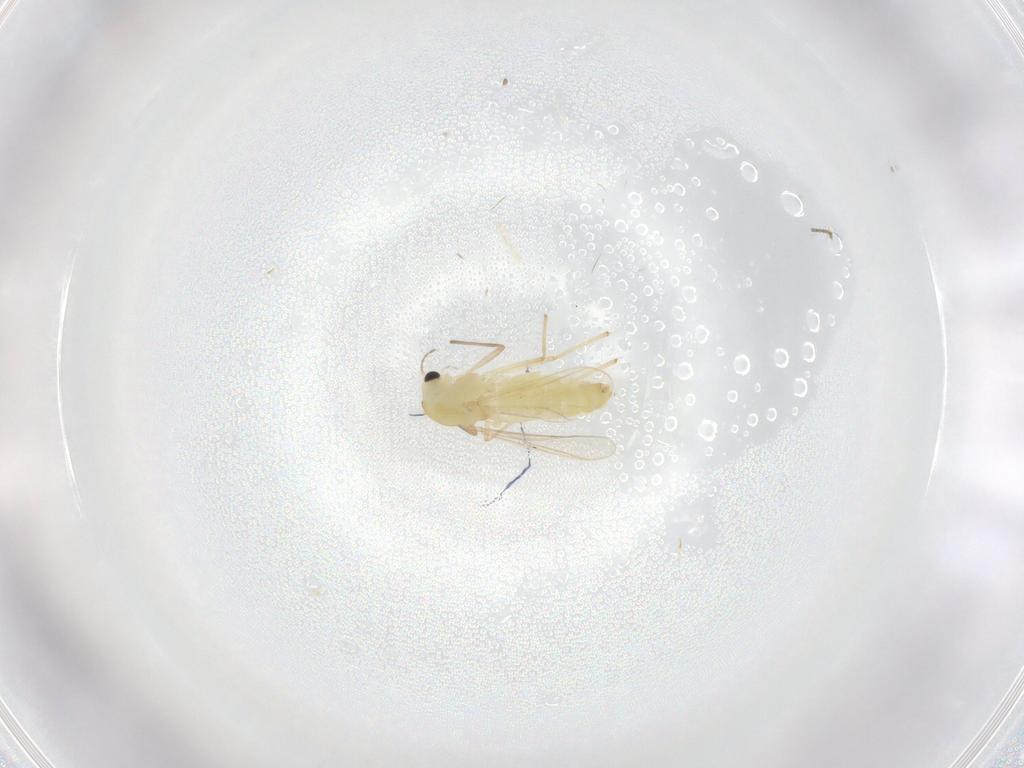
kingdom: Animalia
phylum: Arthropoda
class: Insecta
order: Diptera
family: Chironomidae
